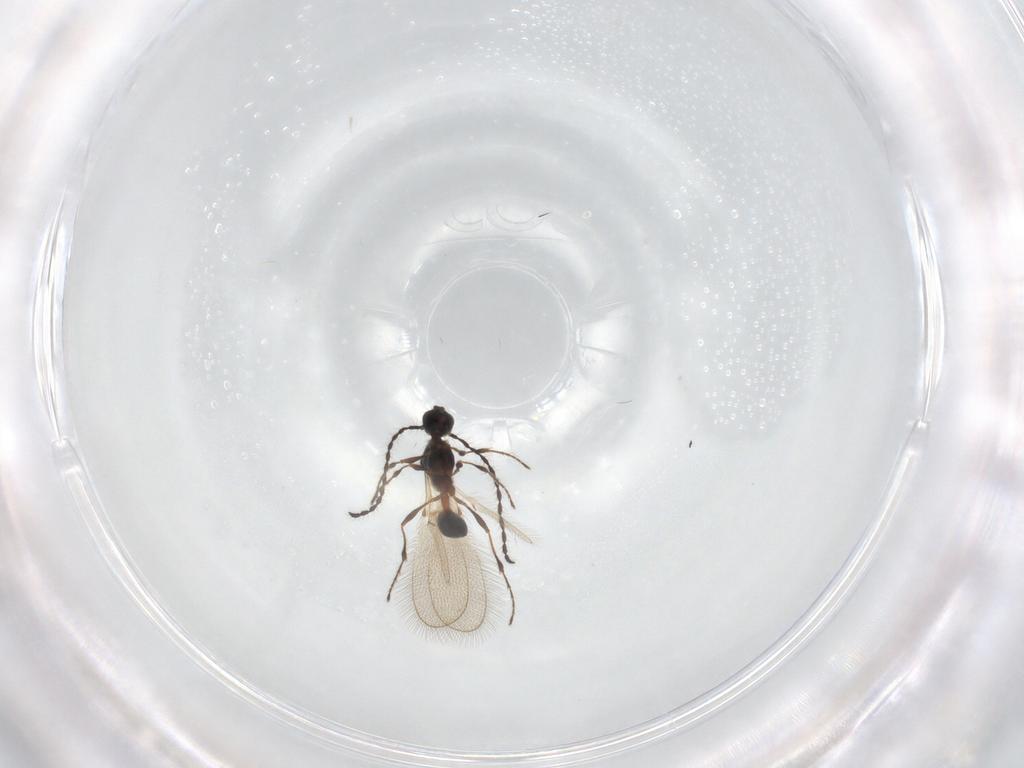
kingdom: Animalia
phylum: Arthropoda
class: Insecta
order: Hymenoptera
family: Diapriidae
